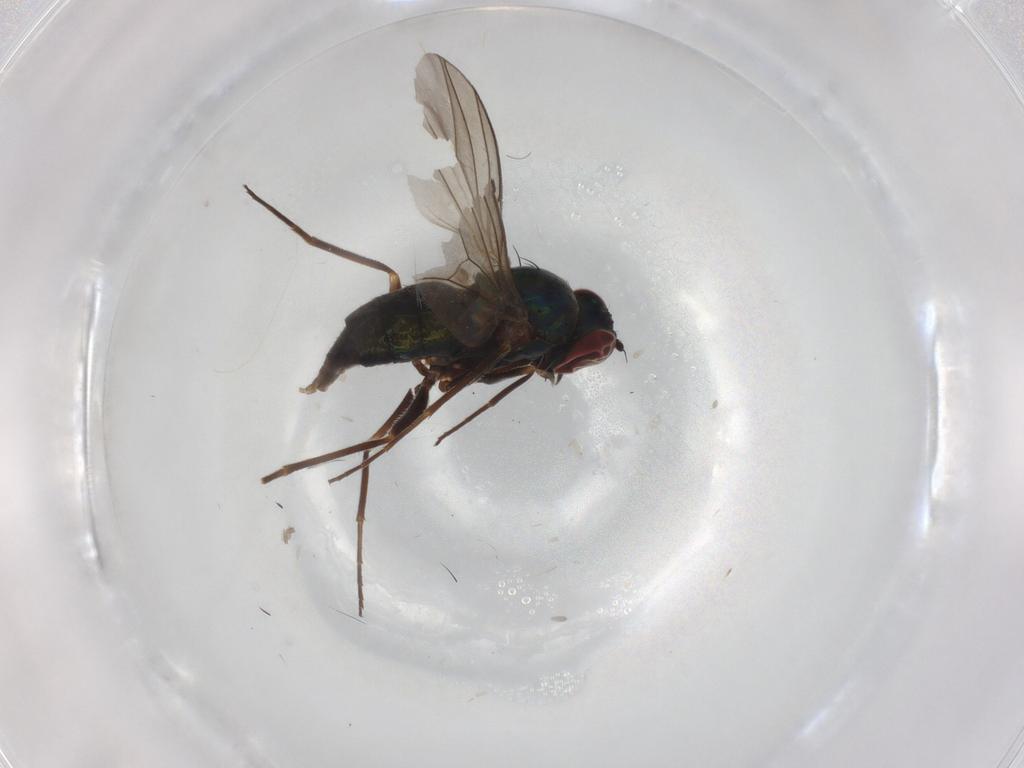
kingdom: Animalia
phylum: Arthropoda
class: Insecta
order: Diptera
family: Dolichopodidae
